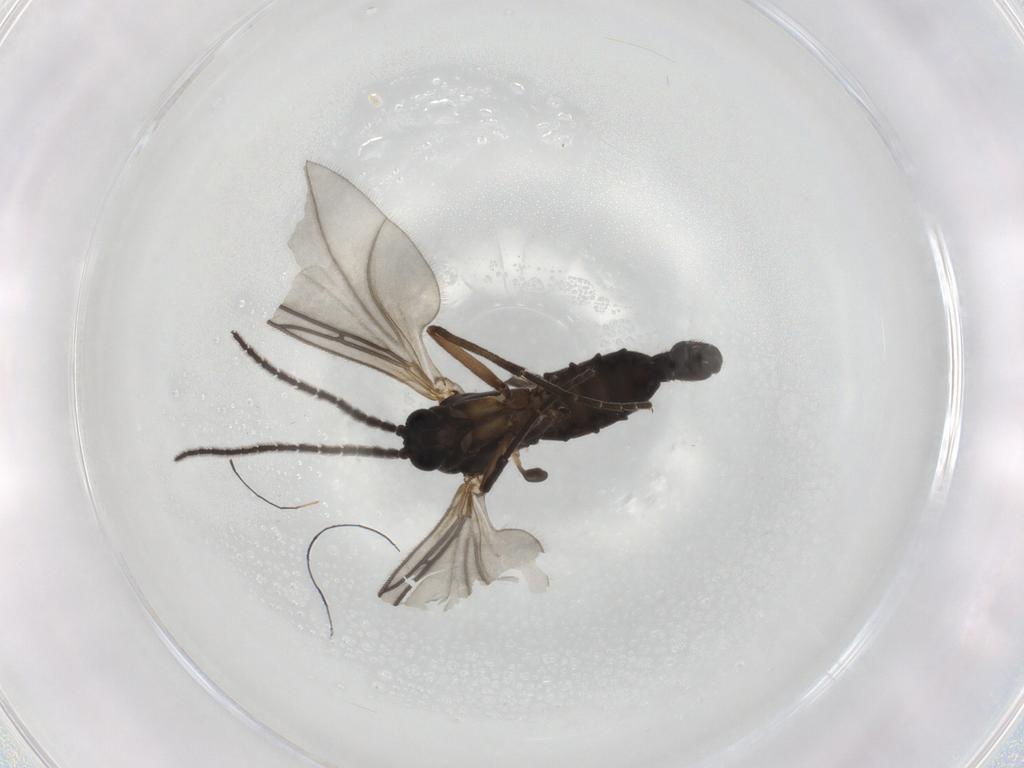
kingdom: Animalia
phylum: Arthropoda
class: Insecta
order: Diptera
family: Sciaridae
